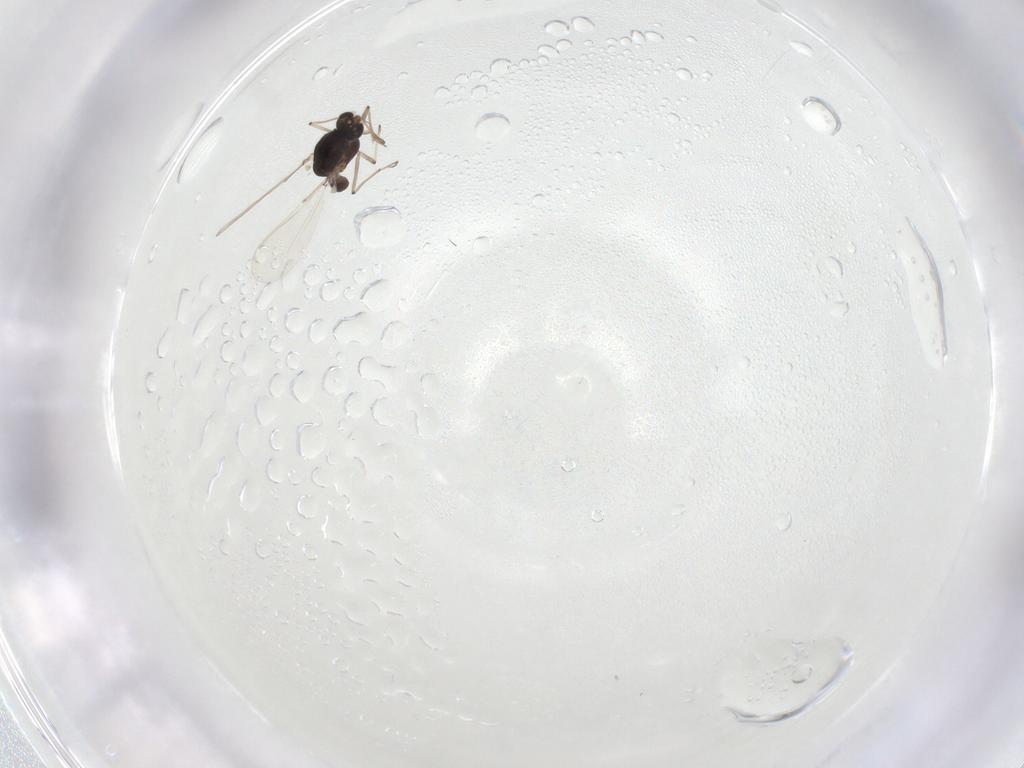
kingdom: Animalia
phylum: Arthropoda
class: Insecta
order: Diptera
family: Chironomidae
